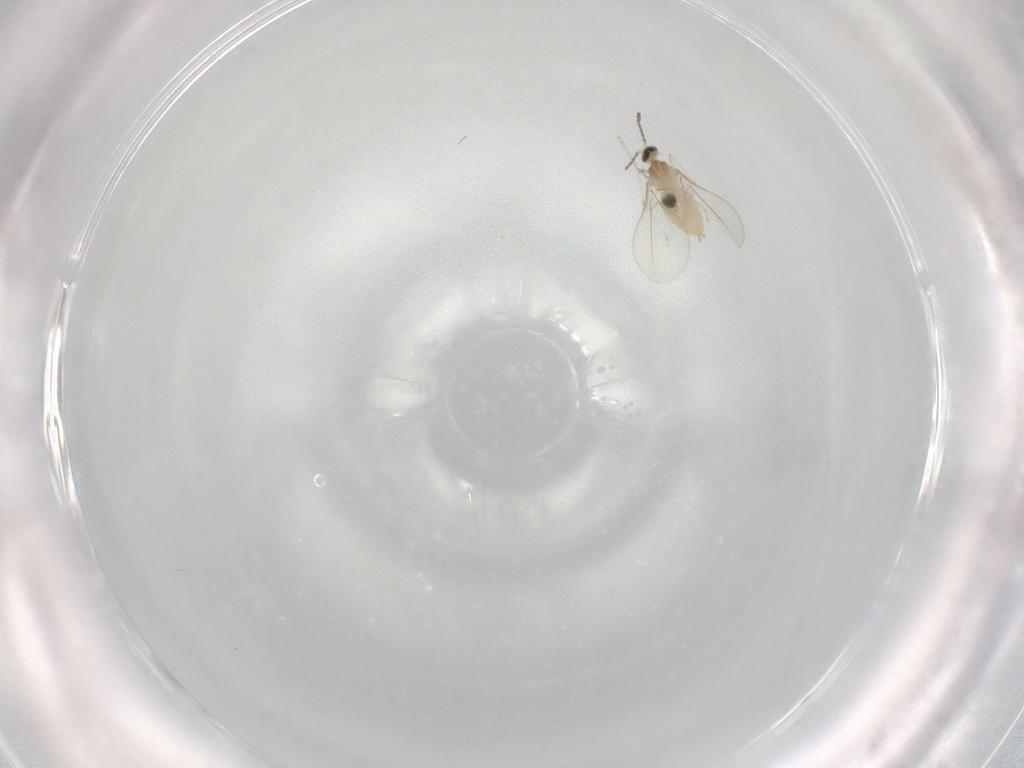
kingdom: Animalia
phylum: Arthropoda
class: Insecta
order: Diptera
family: Cecidomyiidae
